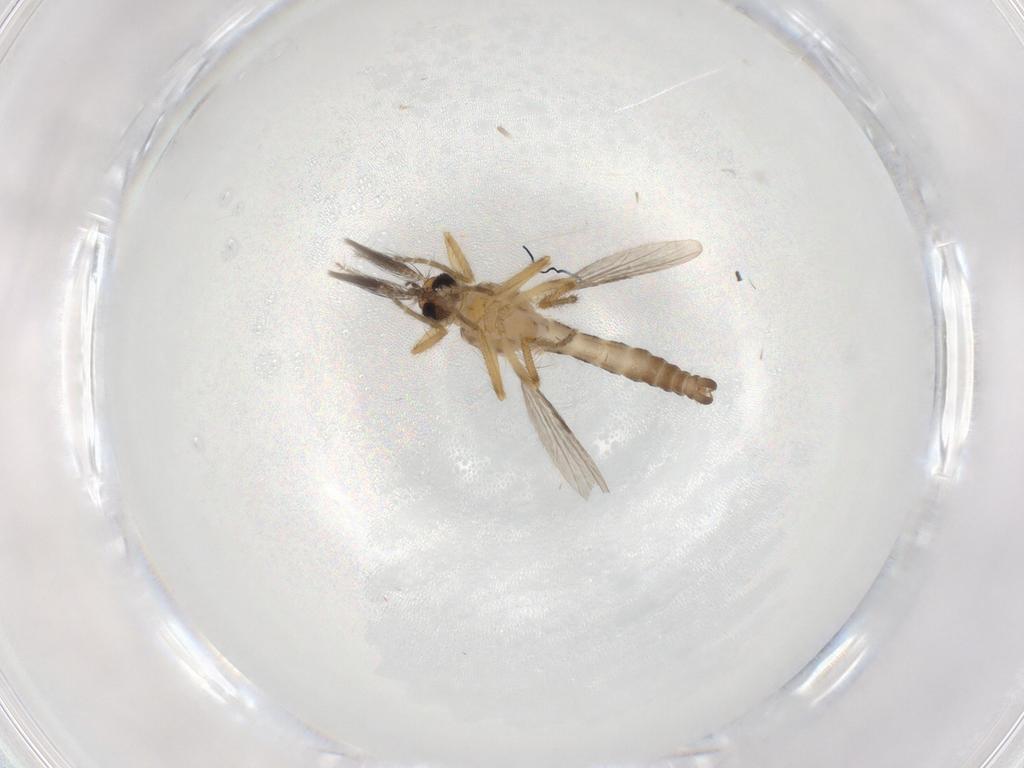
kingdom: Animalia
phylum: Arthropoda
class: Insecta
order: Diptera
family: Ceratopogonidae
